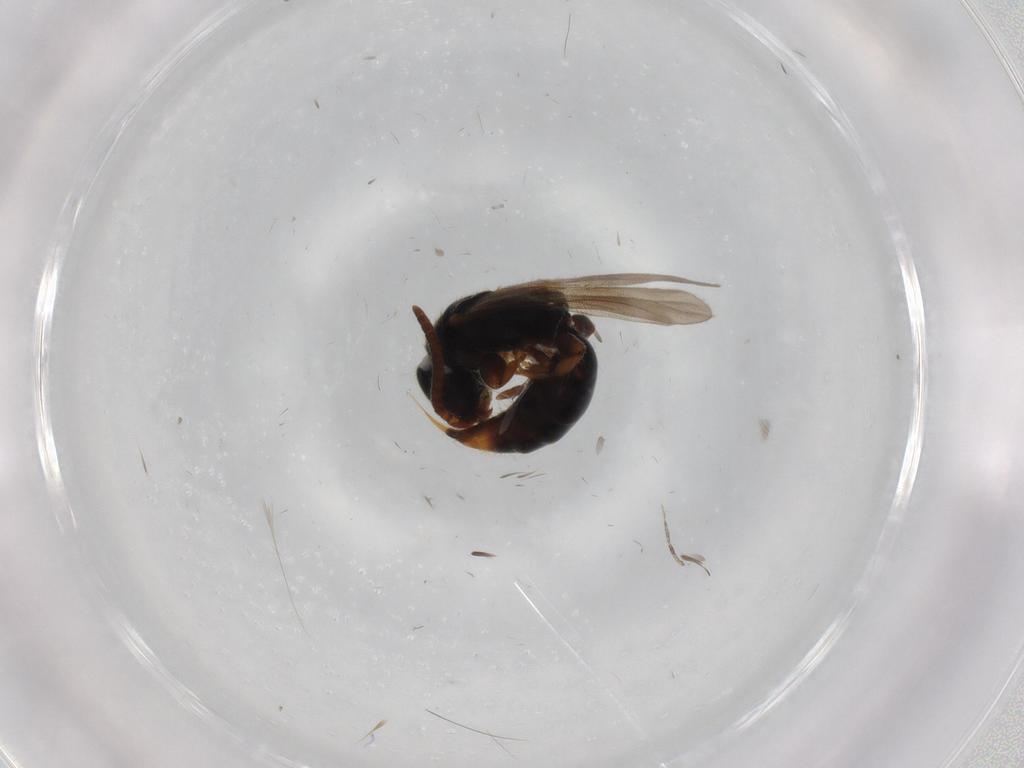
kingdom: Animalia
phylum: Arthropoda
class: Insecta
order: Hymenoptera
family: Bethylidae
